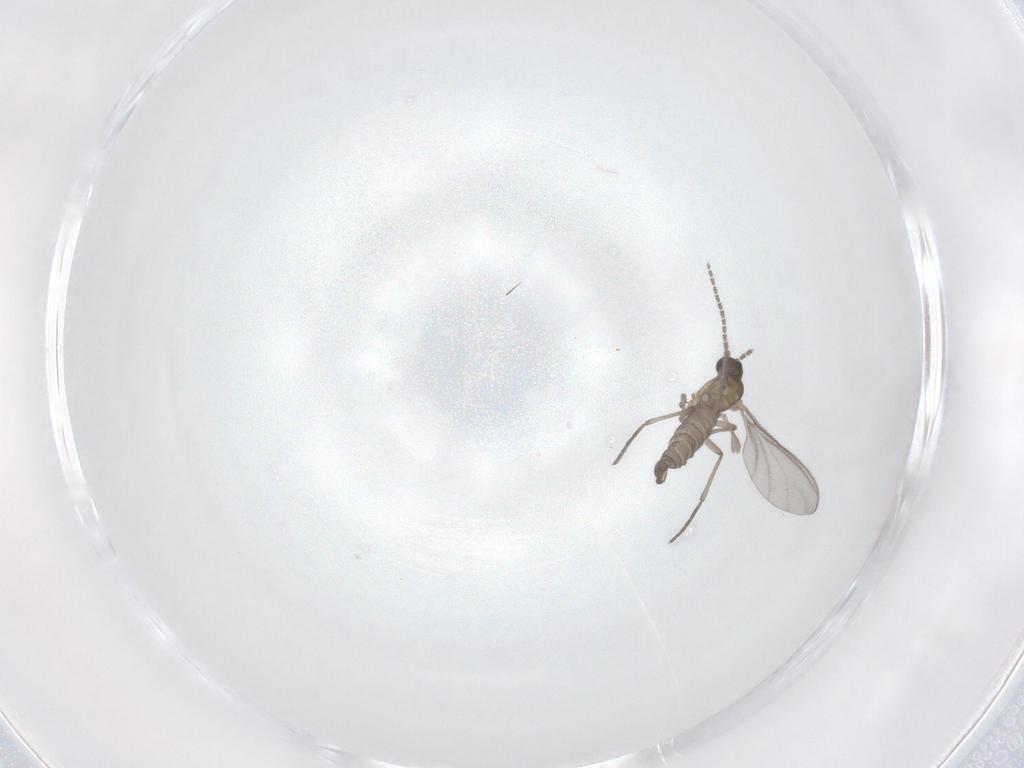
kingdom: Animalia
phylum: Arthropoda
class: Insecta
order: Diptera
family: Sciaridae
